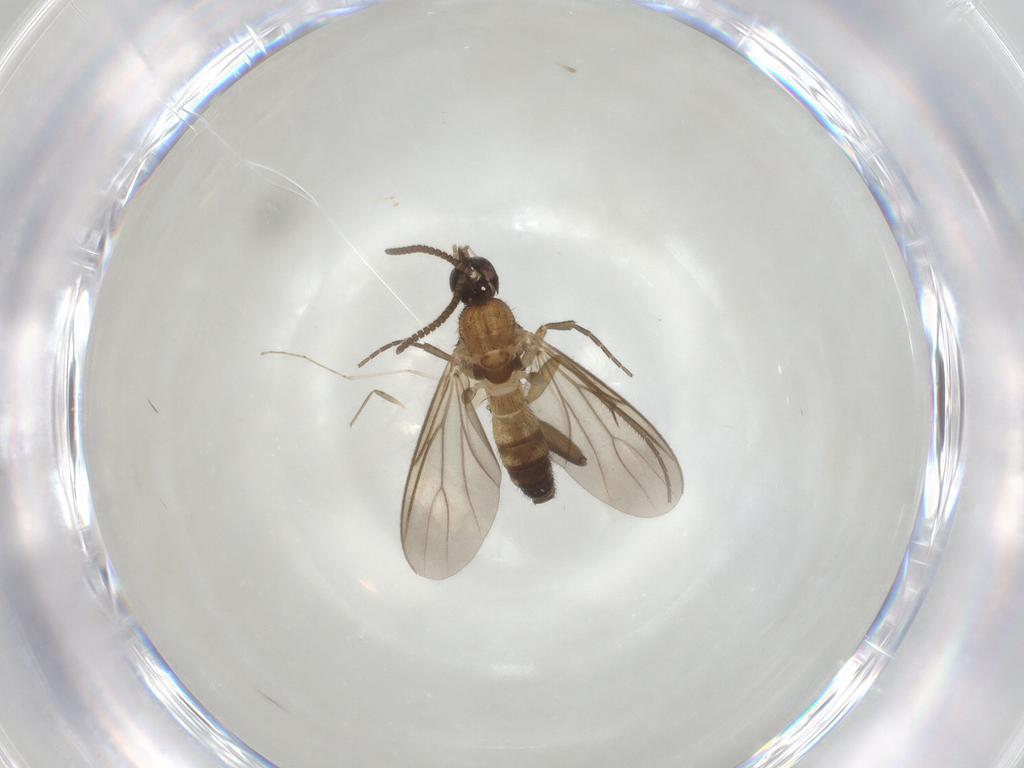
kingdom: Animalia
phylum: Arthropoda
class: Insecta
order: Diptera
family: Mycetophilidae
